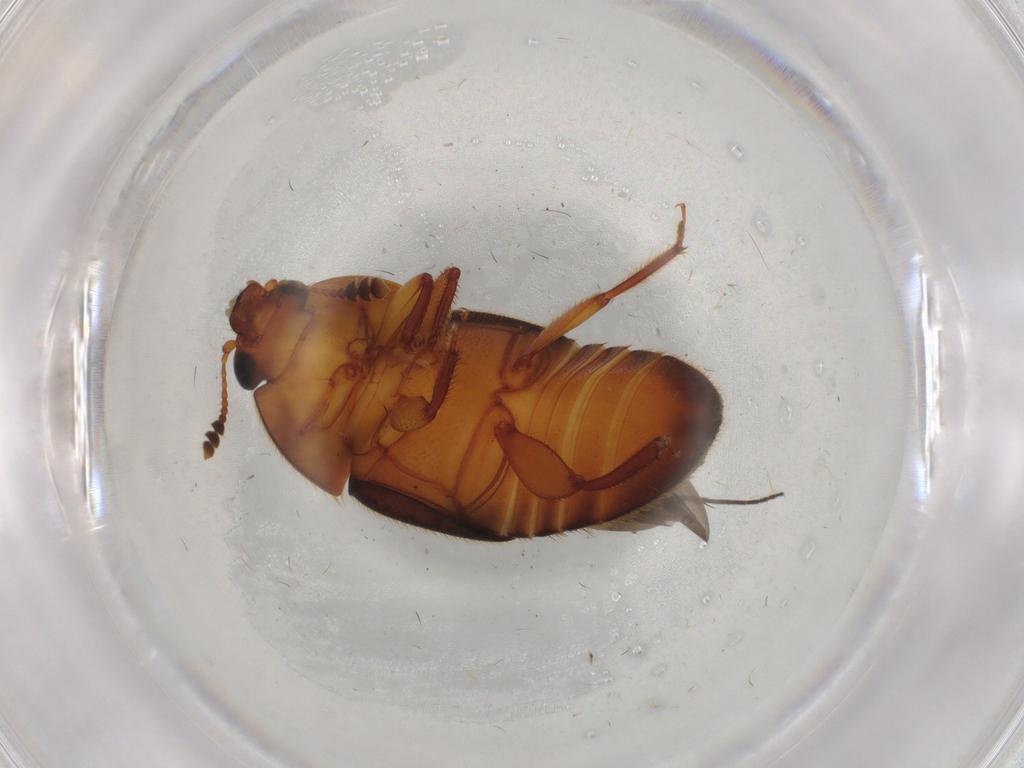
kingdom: Animalia
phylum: Arthropoda
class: Insecta
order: Coleoptera
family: Nitidulidae
